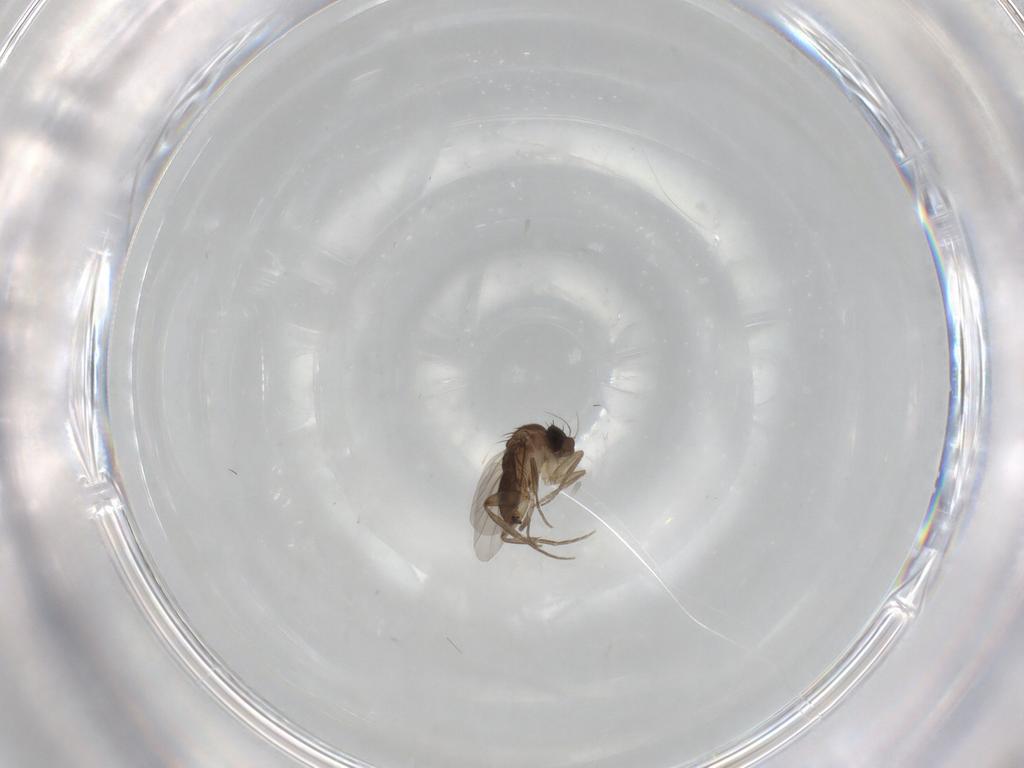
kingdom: Animalia
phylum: Arthropoda
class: Insecta
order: Diptera
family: Phoridae
